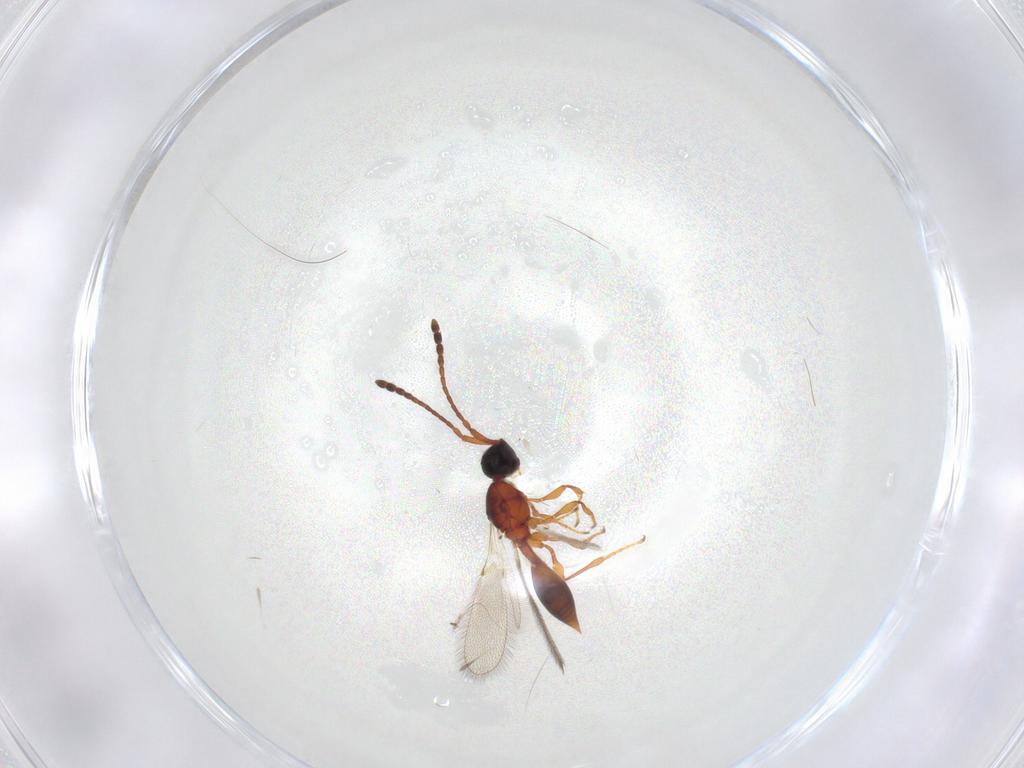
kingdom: Animalia
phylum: Arthropoda
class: Insecta
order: Hymenoptera
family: Diapriidae
